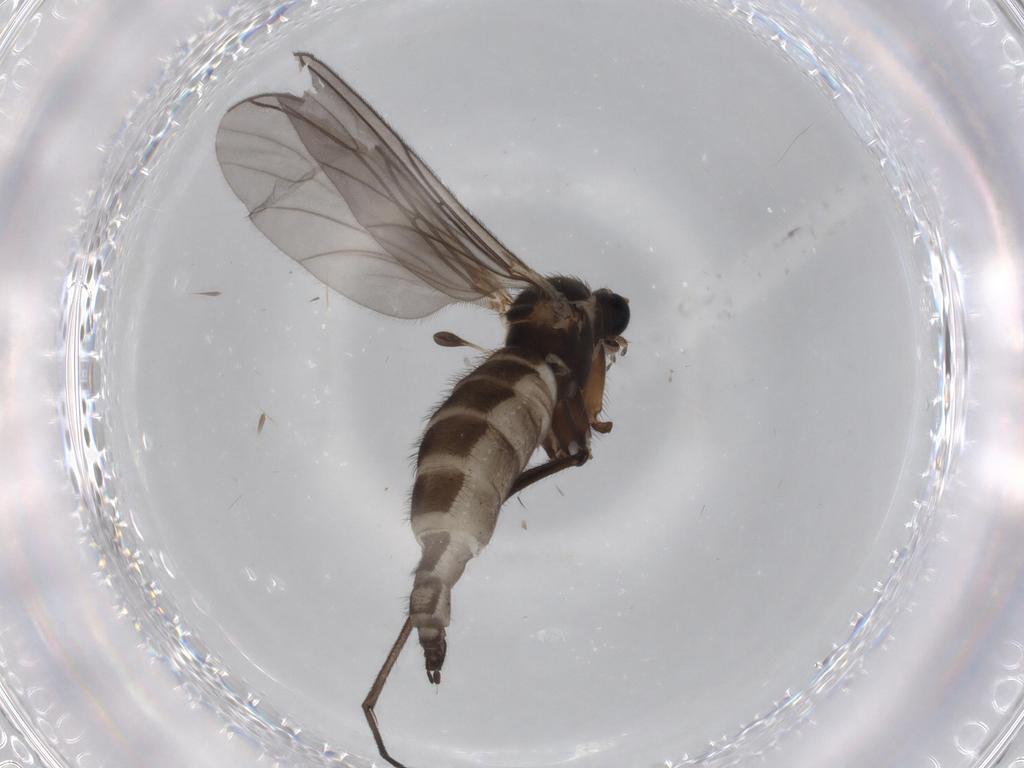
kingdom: Animalia
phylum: Arthropoda
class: Insecta
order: Diptera
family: Sciaridae
